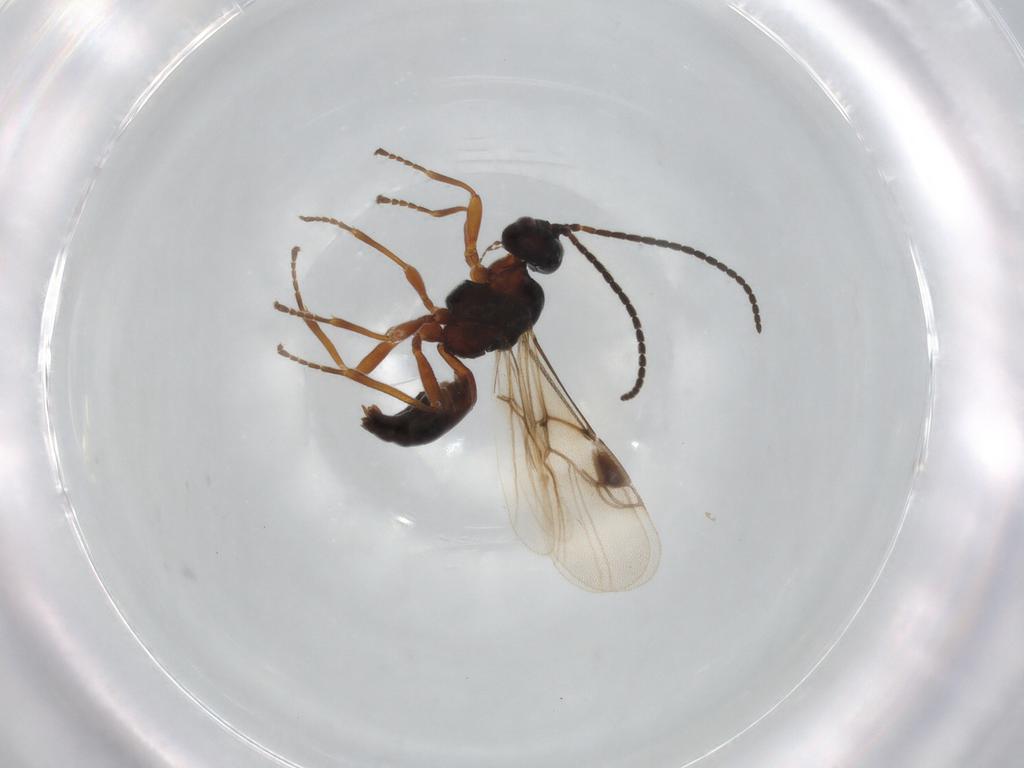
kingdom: Animalia
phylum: Arthropoda
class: Insecta
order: Hymenoptera
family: Braconidae
